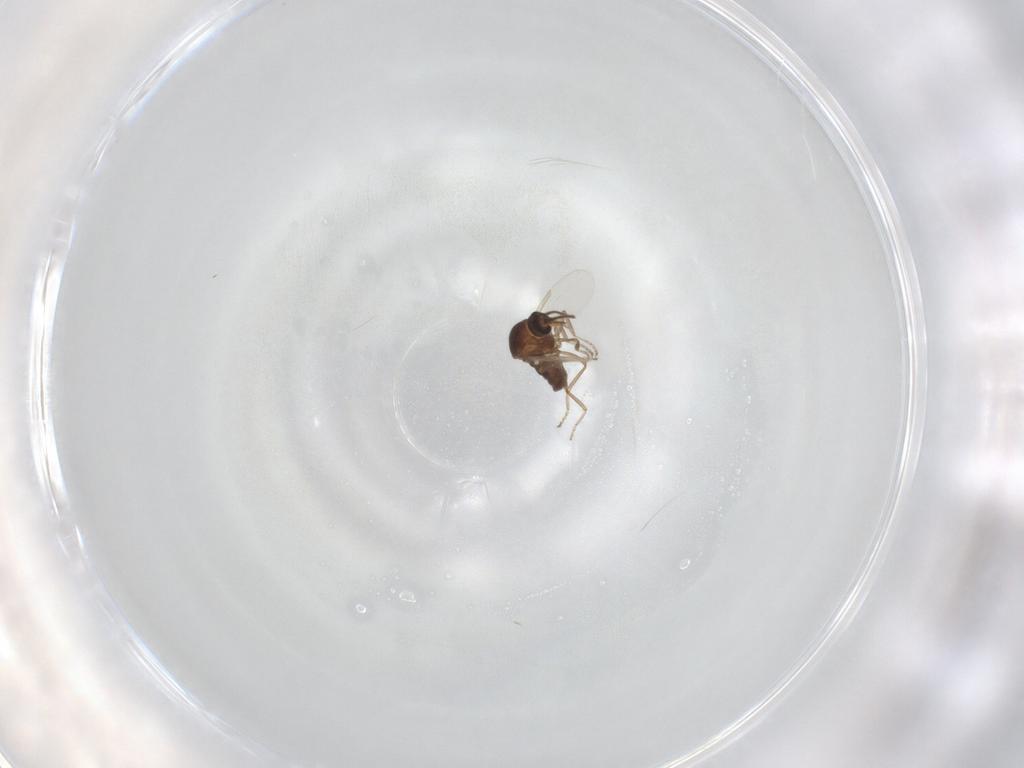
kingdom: Animalia
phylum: Arthropoda
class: Insecta
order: Diptera
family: Ceratopogonidae
